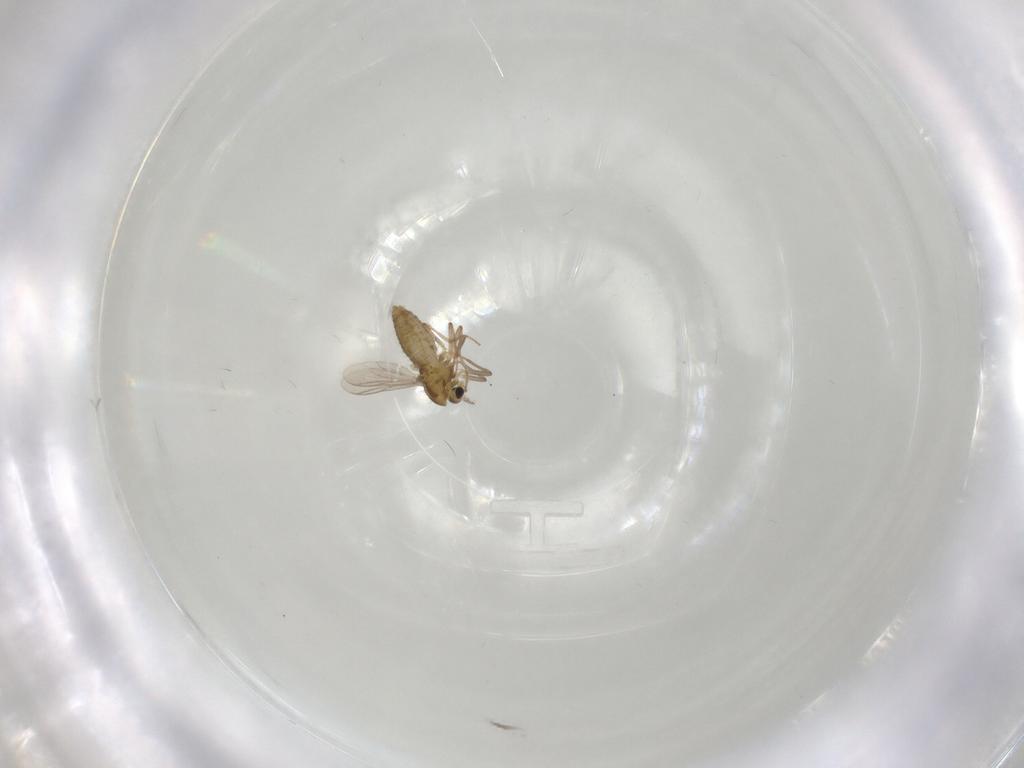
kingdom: Animalia
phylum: Arthropoda
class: Insecta
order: Diptera
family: Chironomidae
